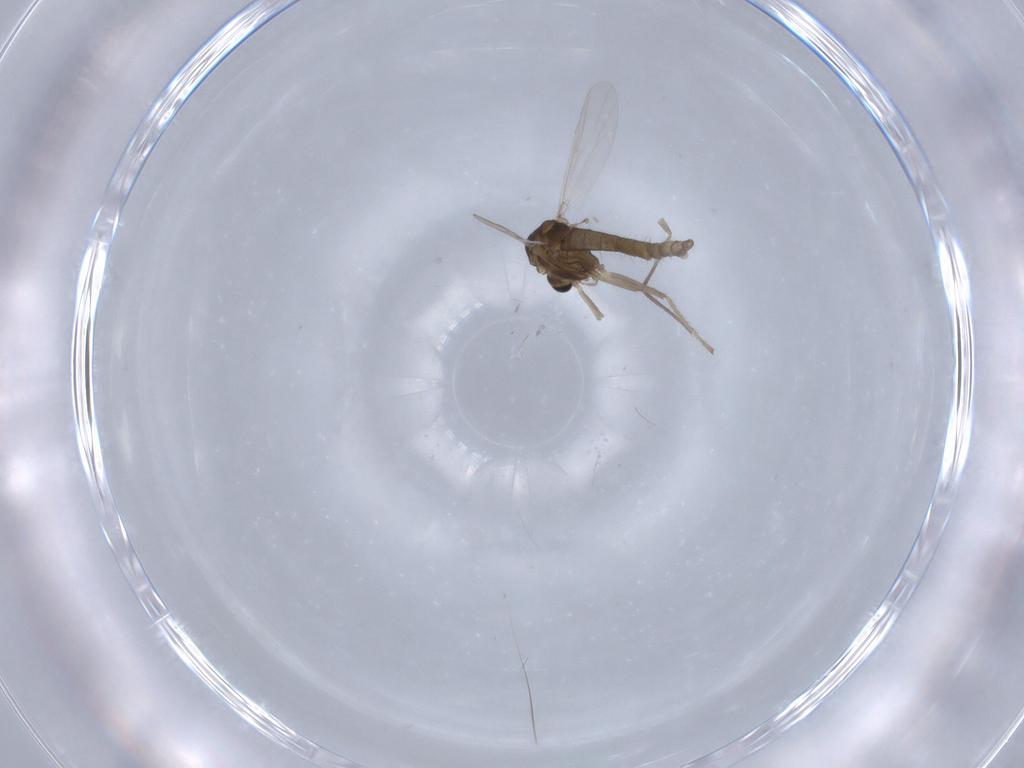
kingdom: Animalia
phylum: Arthropoda
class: Insecta
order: Diptera
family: Chironomidae
